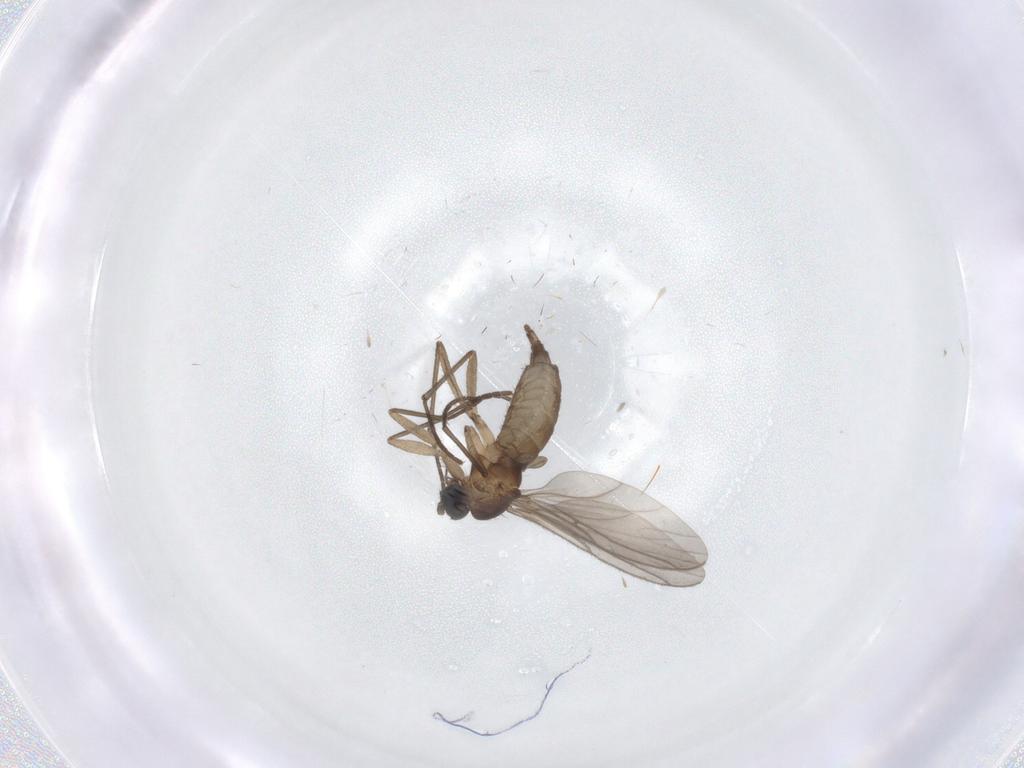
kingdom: Animalia
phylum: Arthropoda
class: Insecta
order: Diptera
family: Sciaridae
